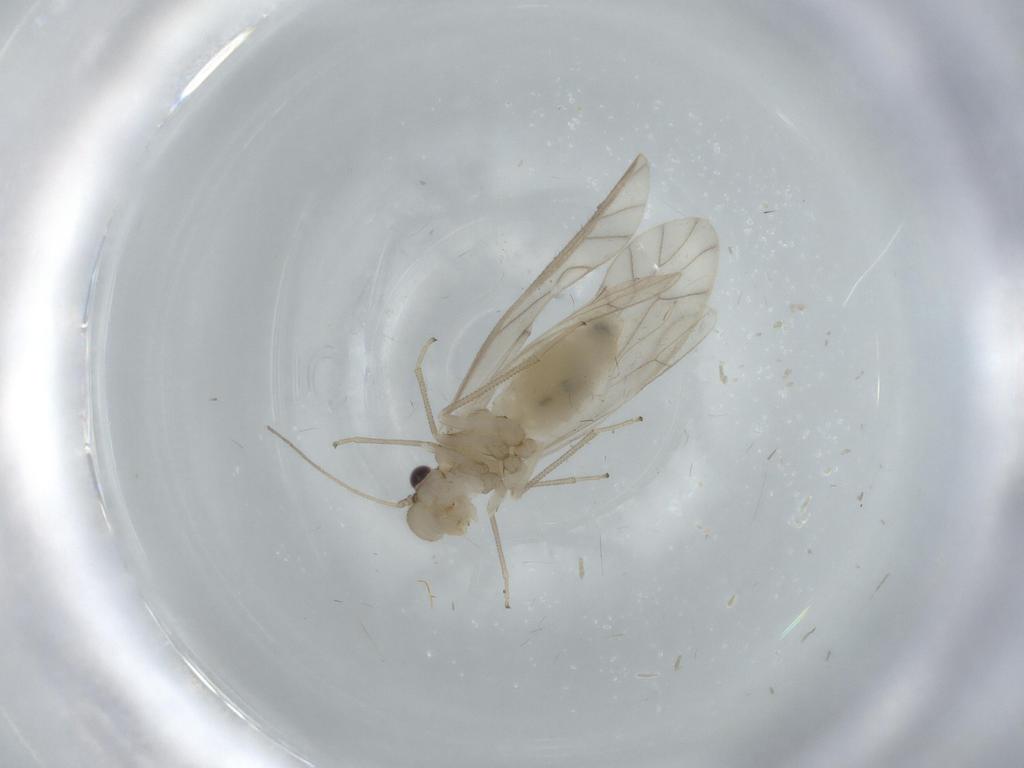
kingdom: Animalia
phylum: Arthropoda
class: Insecta
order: Psocodea
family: Caeciliusidae
